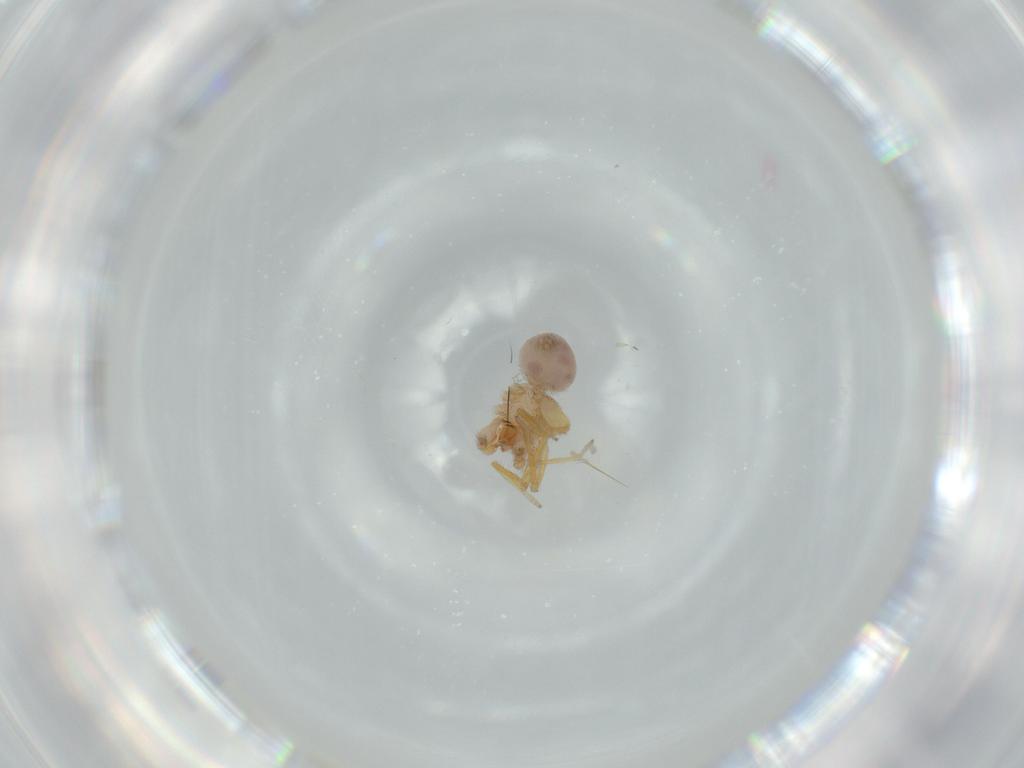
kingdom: Animalia
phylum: Arthropoda
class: Arachnida
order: Araneae
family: Oonopidae
